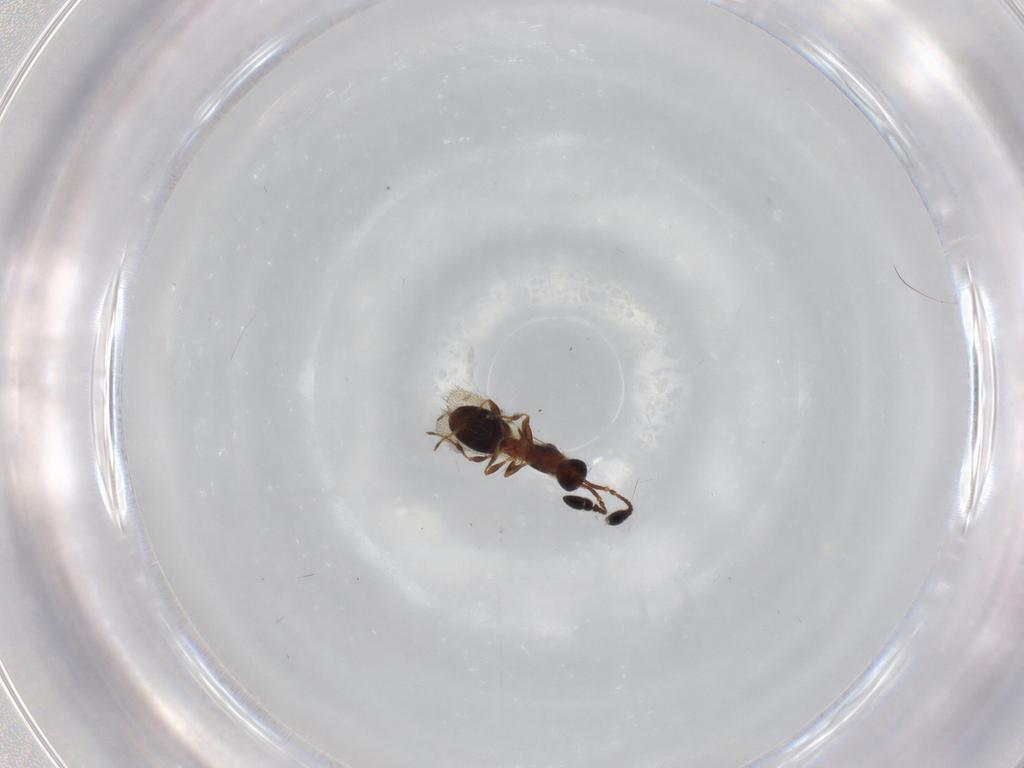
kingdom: Animalia
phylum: Arthropoda
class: Insecta
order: Hymenoptera
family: Diapriidae
